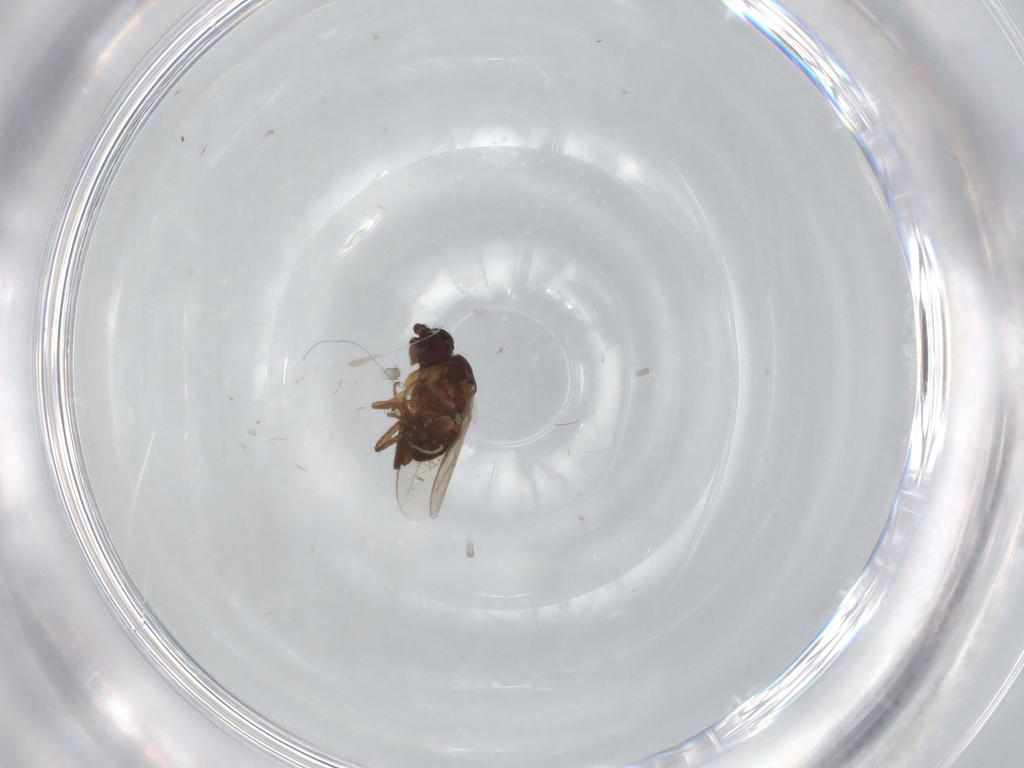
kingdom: Animalia
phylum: Arthropoda
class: Insecta
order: Diptera
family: Sphaeroceridae
